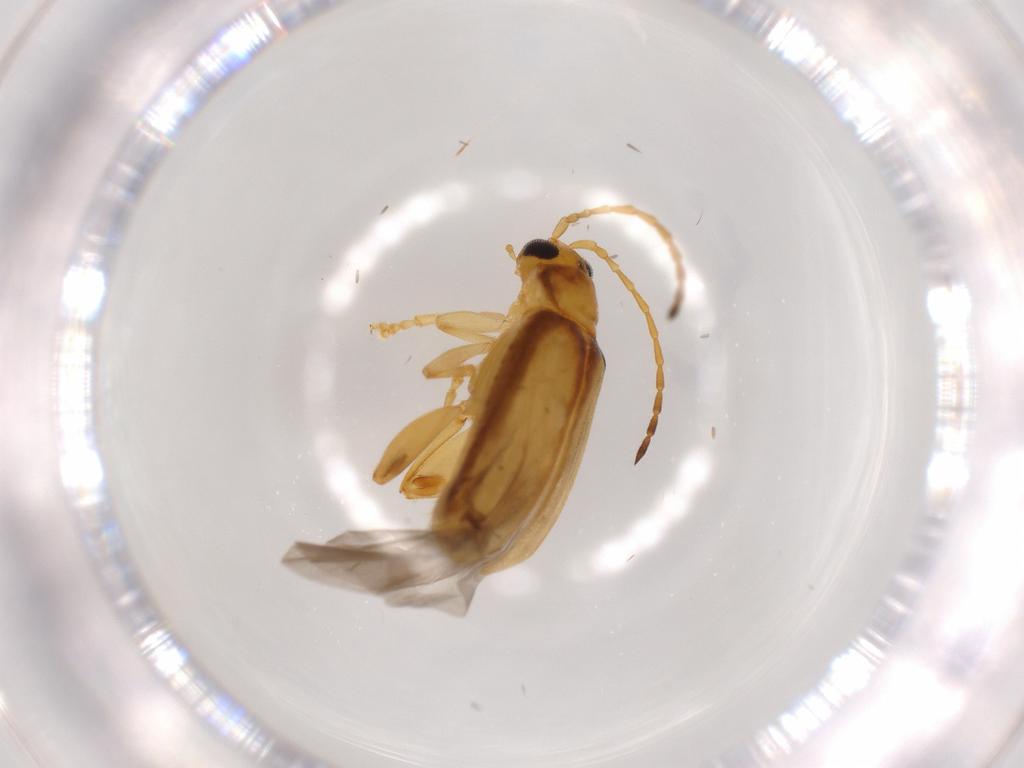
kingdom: Animalia
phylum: Arthropoda
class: Insecta
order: Coleoptera
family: Chrysomelidae
